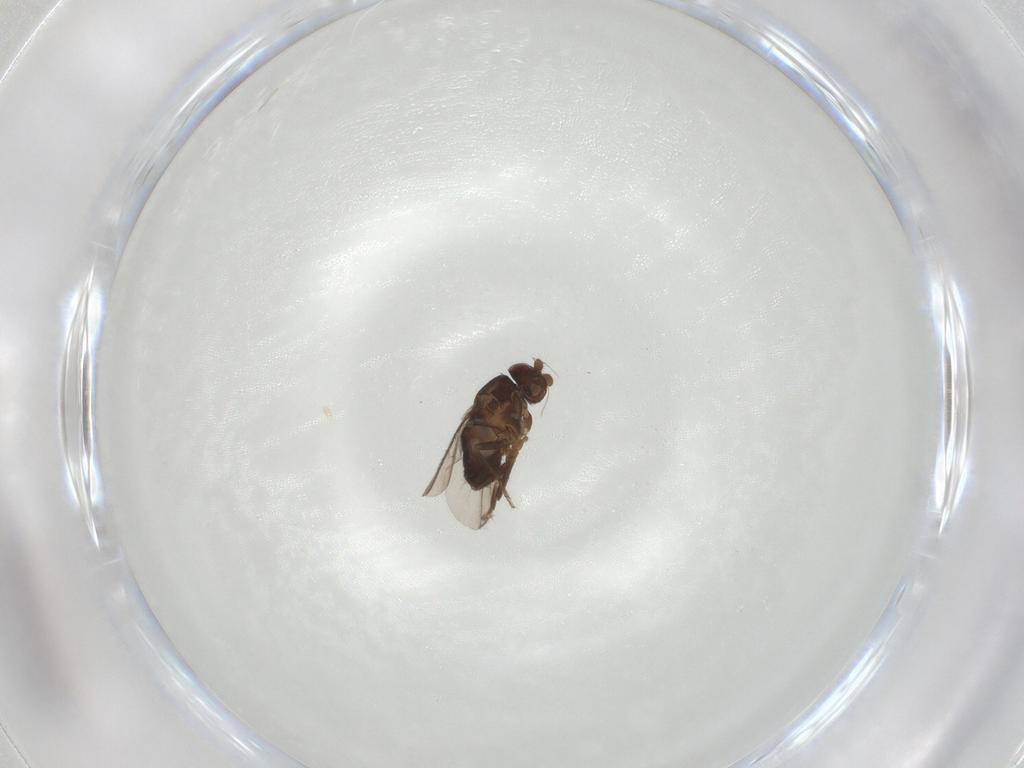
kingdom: Animalia
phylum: Arthropoda
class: Insecta
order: Diptera
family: Sphaeroceridae
